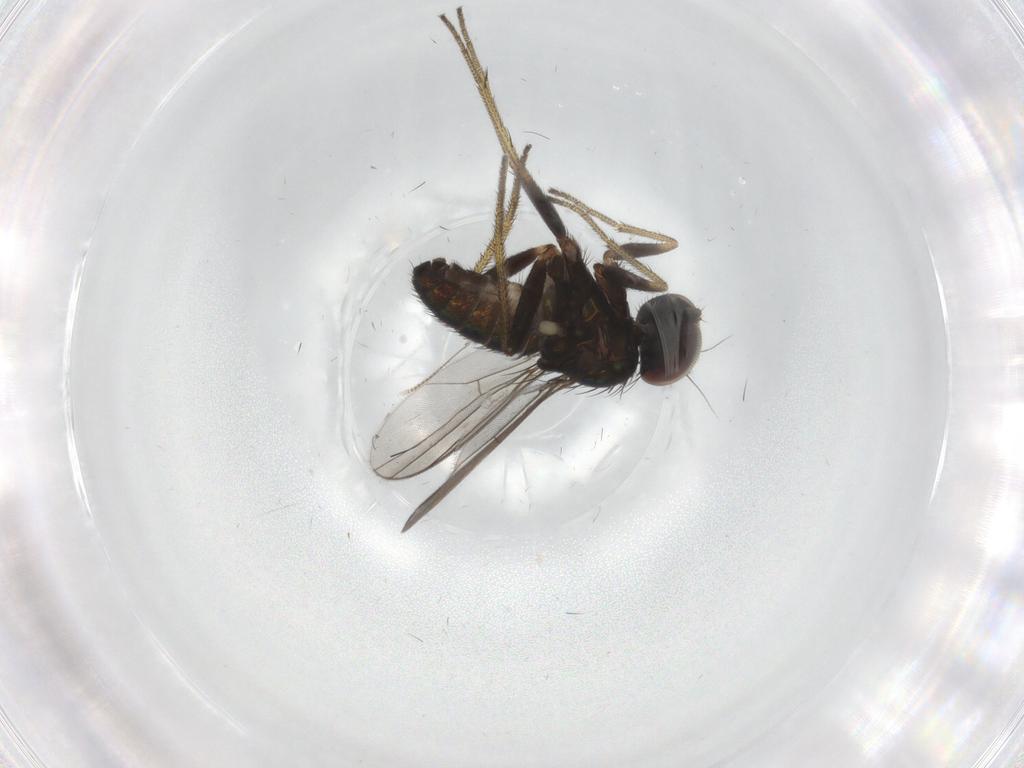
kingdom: Animalia
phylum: Arthropoda
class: Insecta
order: Diptera
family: Dolichopodidae
